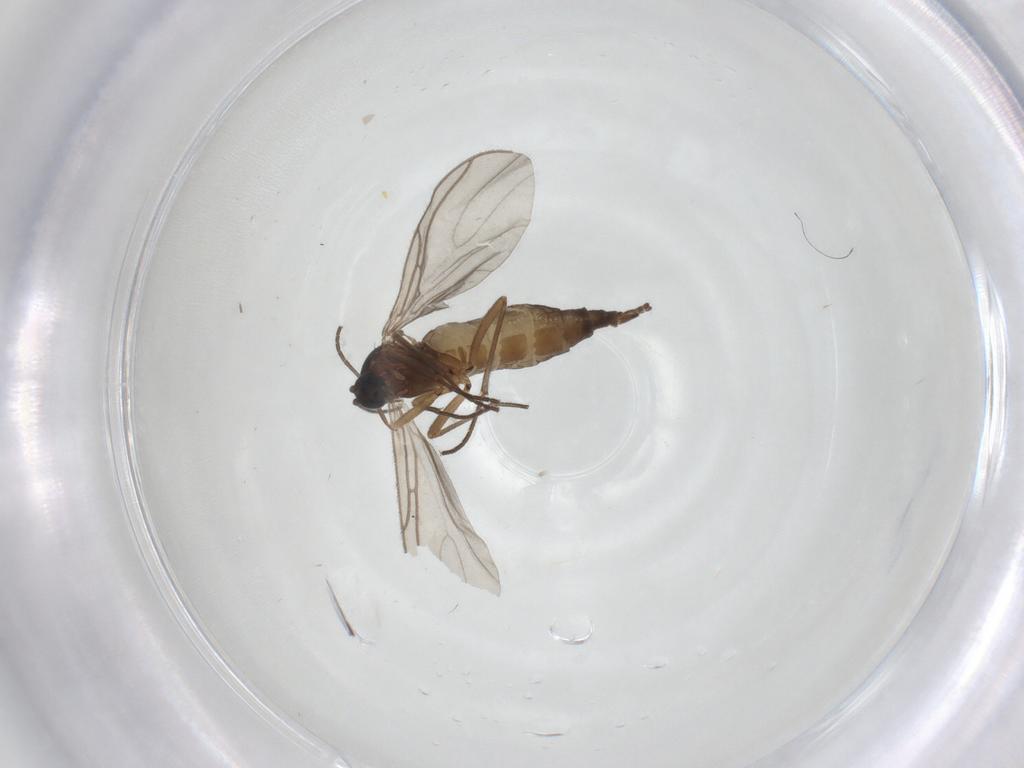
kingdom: Animalia
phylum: Arthropoda
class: Insecta
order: Diptera
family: Sciaridae
